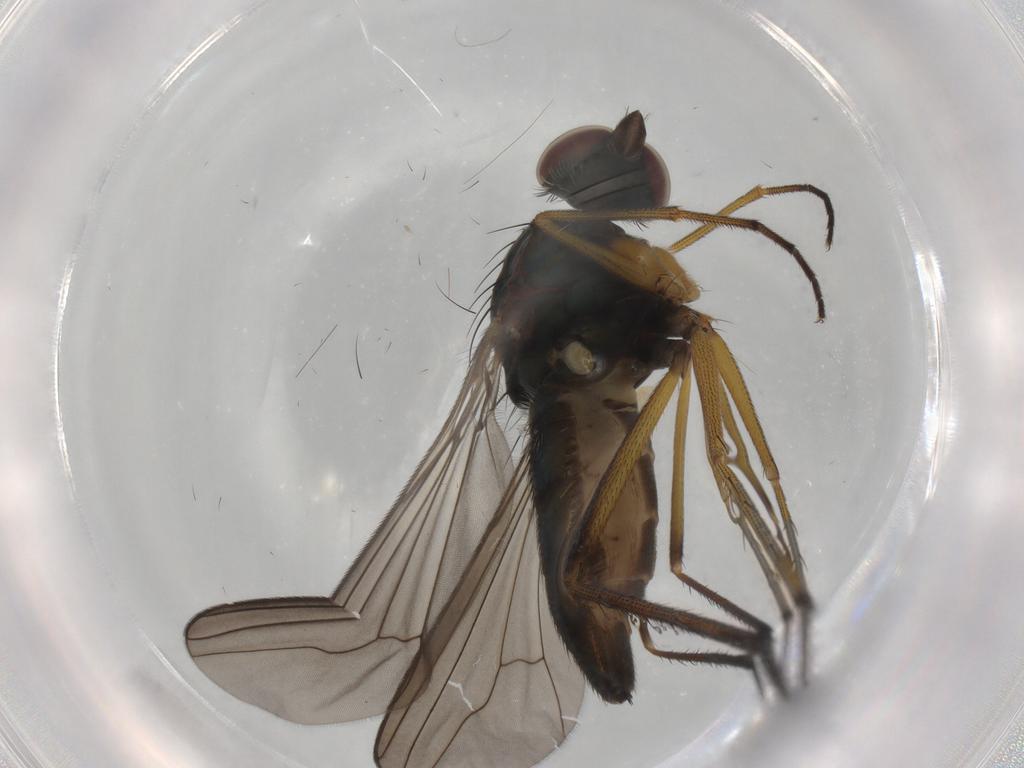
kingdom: Animalia
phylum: Arthropoda
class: Insecta
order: Diptera
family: Dolichopodidae
